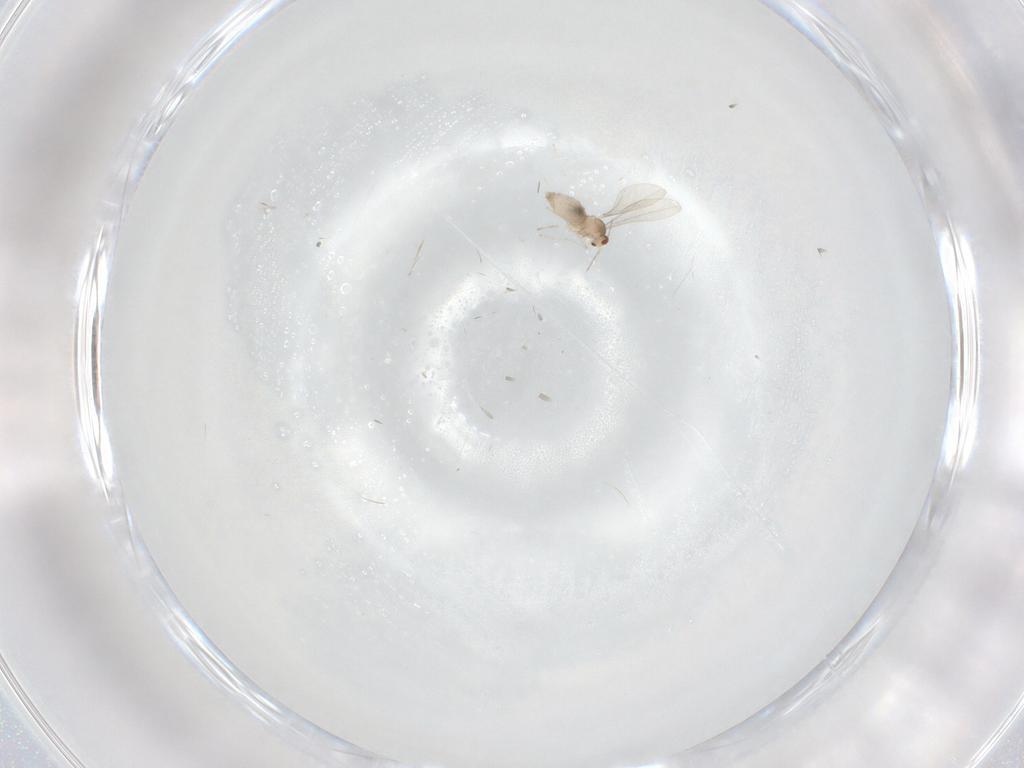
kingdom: Animalia
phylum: Arthropoda
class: Insecta
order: Diptera
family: Cecidomyiidae
